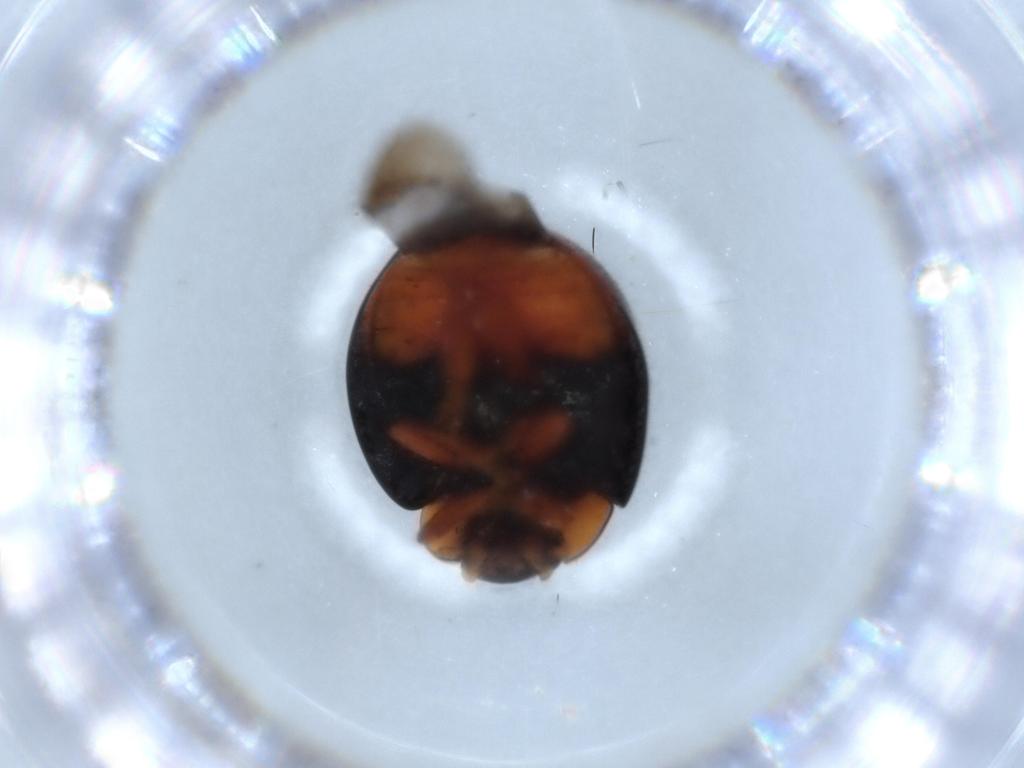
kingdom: Animalia
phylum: Arthropoda
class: Insecta
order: Coleoptera
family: Coccinellidae
